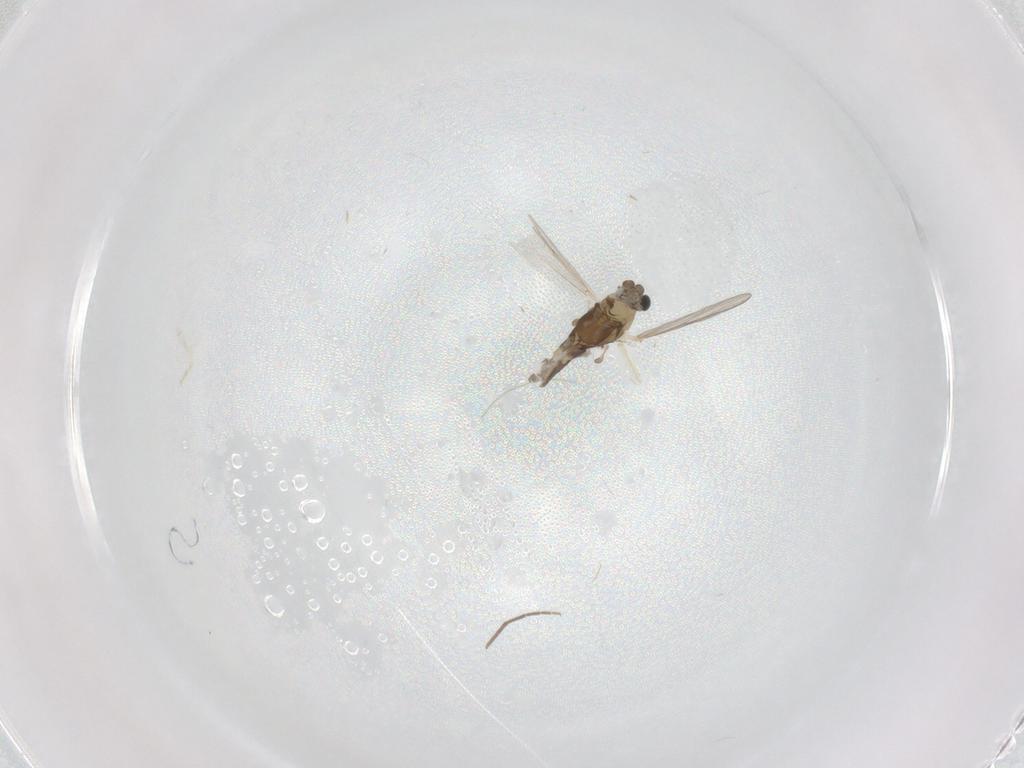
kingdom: Animalia
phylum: Arthropoda
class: Insecta
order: Diptera
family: Chironomidae
